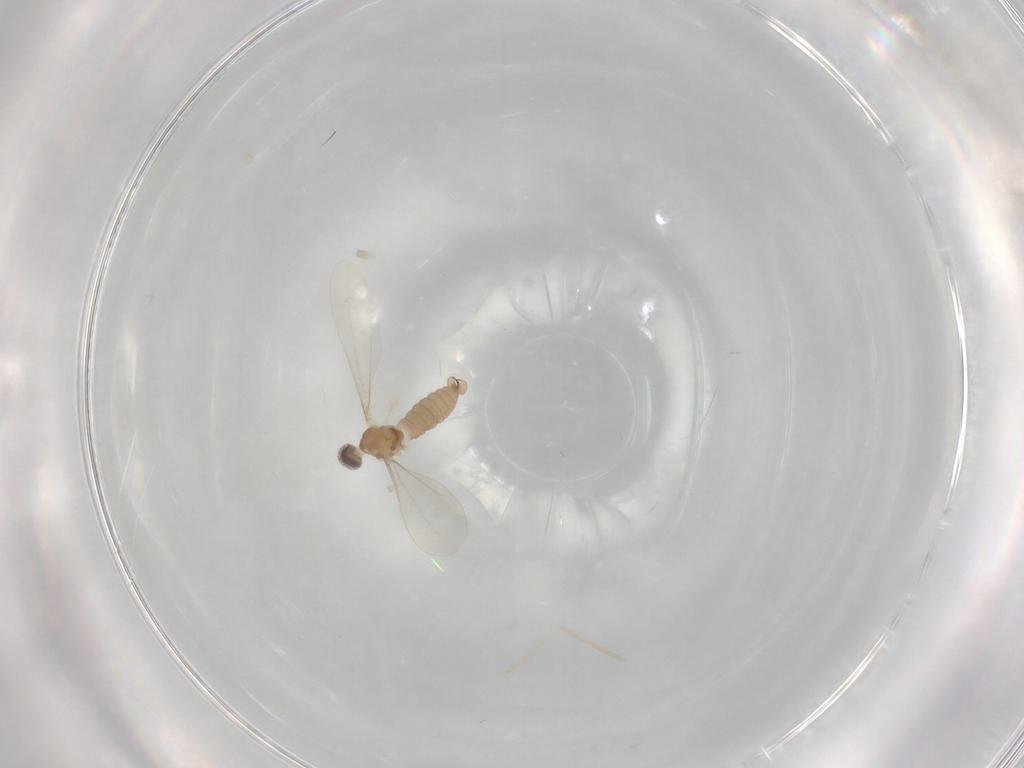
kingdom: Animalia
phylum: Arthropoda
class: Insecta
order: Diptera
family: Cecidomyiidae
